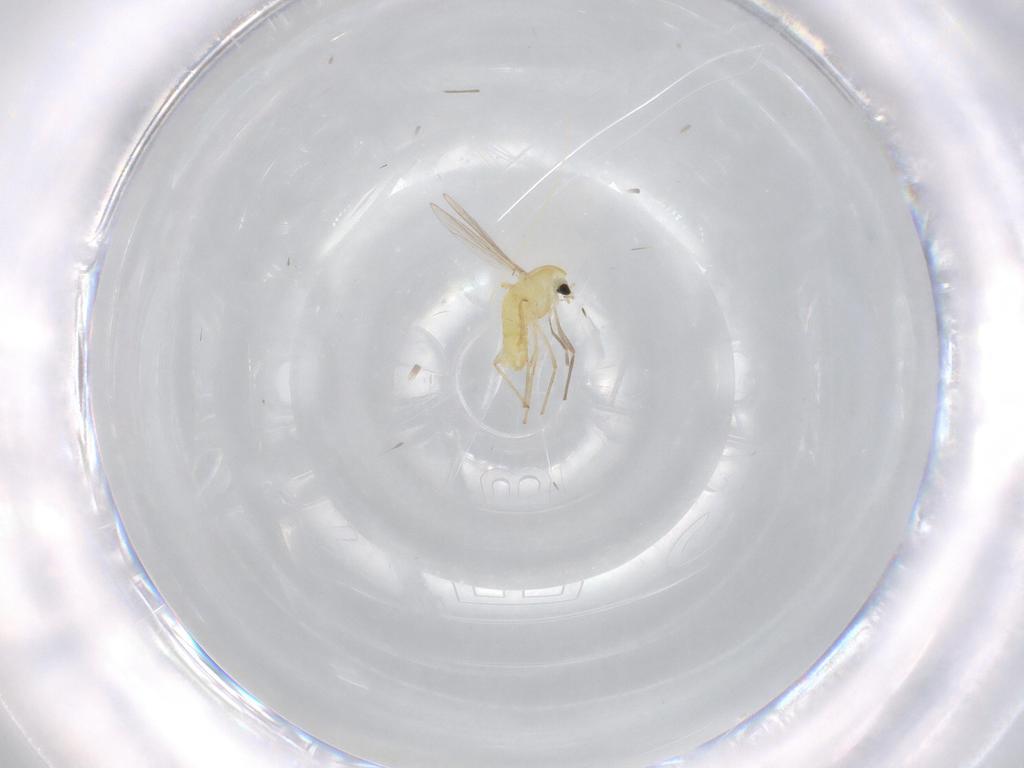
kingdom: Animalia
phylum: Arthropoda
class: Insecta
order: Diptera
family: Chironomidae
